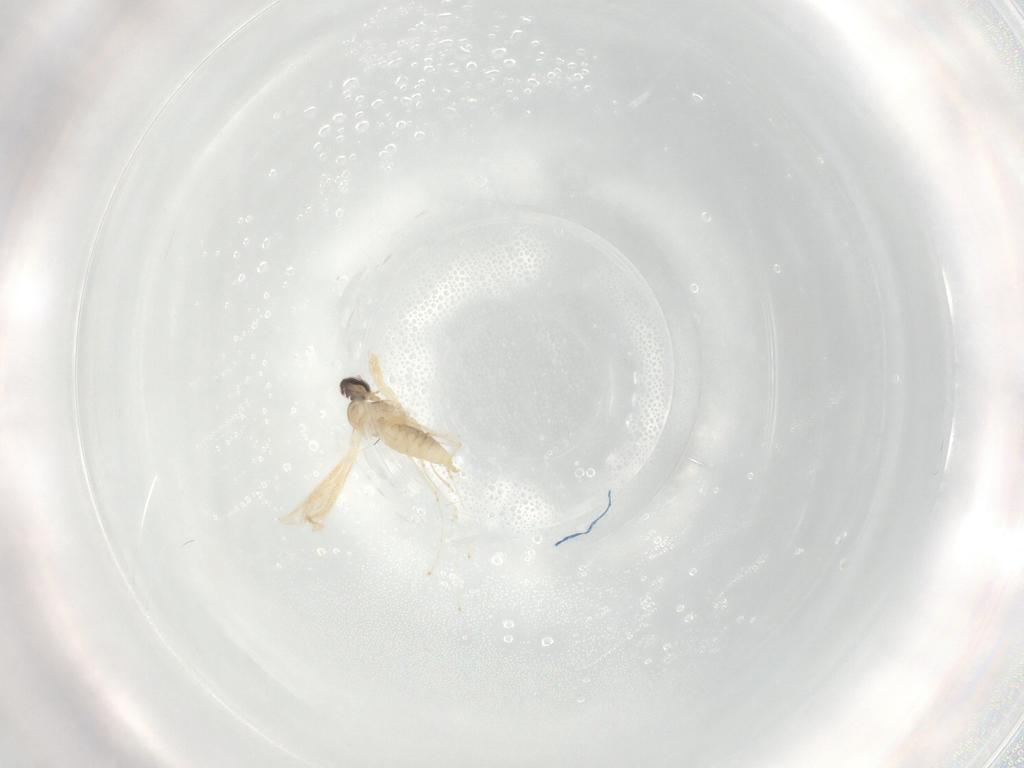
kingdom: Animalia
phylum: Arthropoda
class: Insecta
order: Diptera
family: Cecidomyiidae
